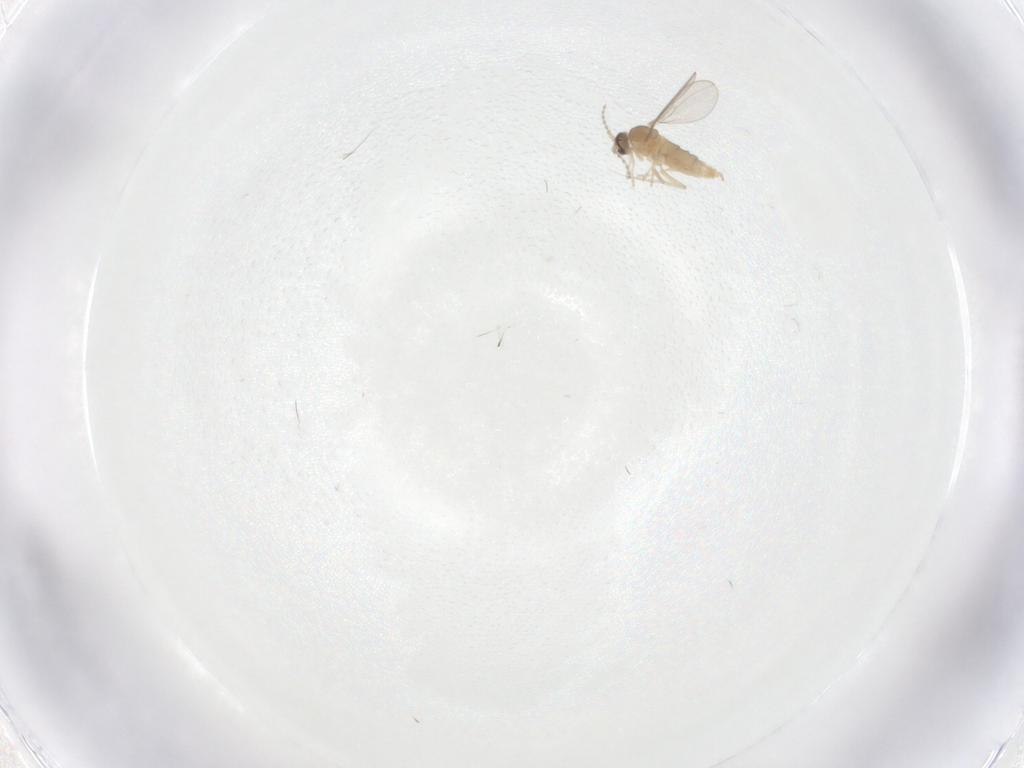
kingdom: Animalia
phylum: Arthropoda
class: Insecta
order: Diptera
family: Cecidomyiidae
